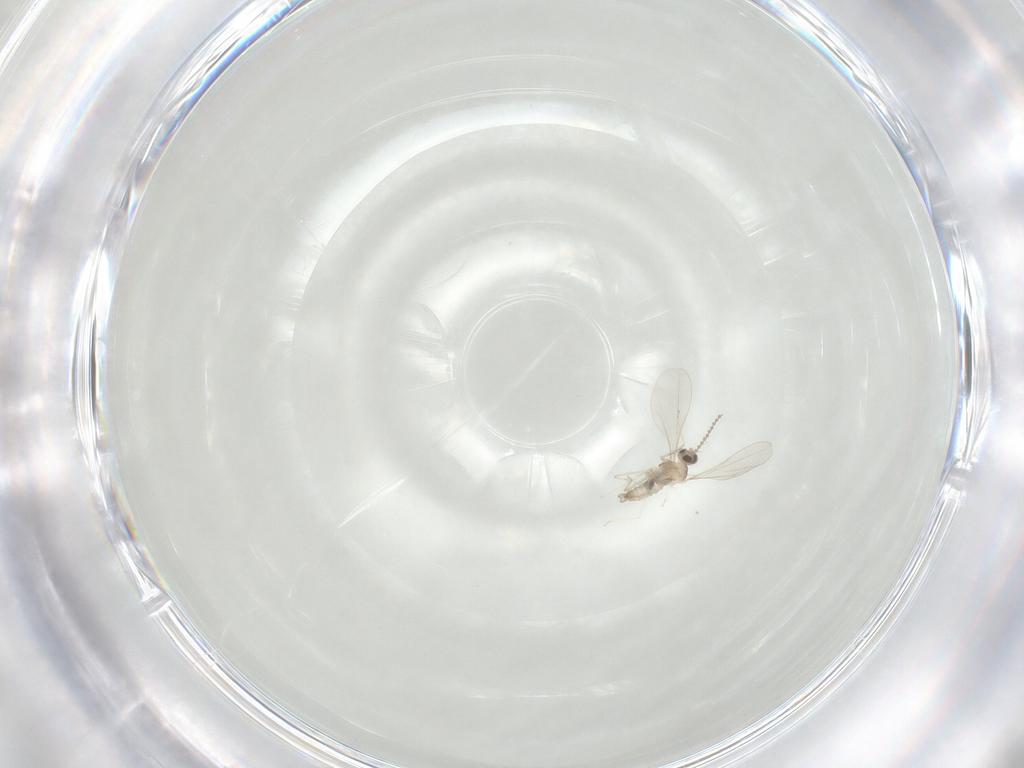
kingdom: Animalia
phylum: Arthropoda
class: Insecta
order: Diptera
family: Cecidomyiidae
